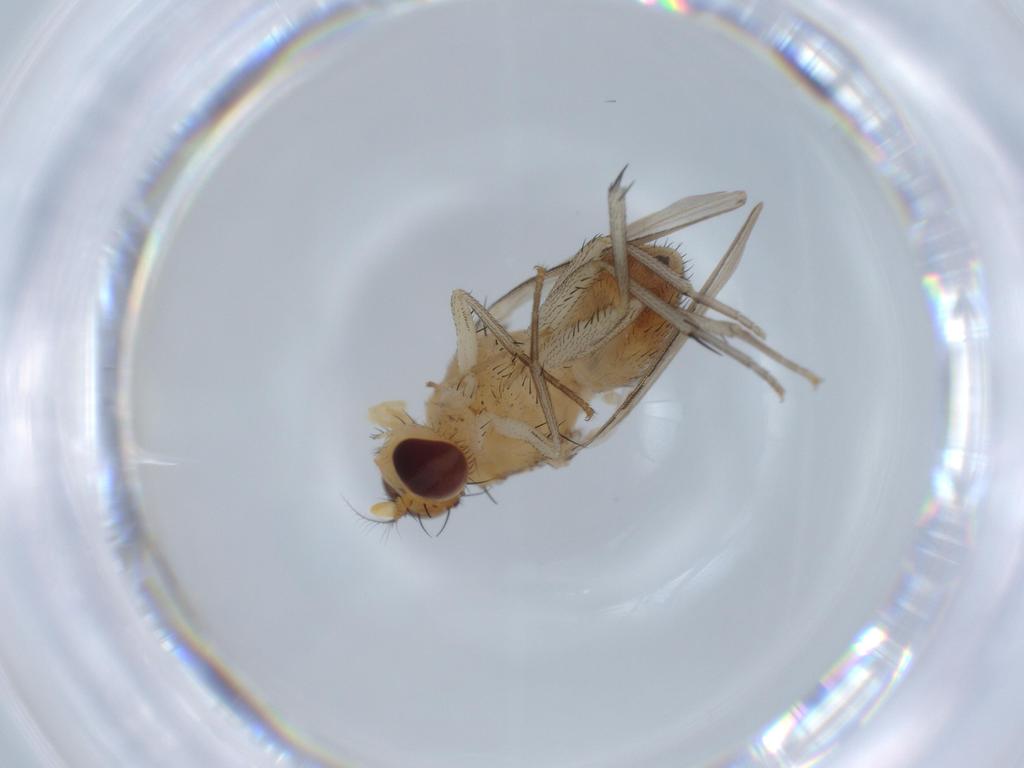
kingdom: Animalia
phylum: Arthropoda
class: Insecta
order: Diptera
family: Lauxaniidae
